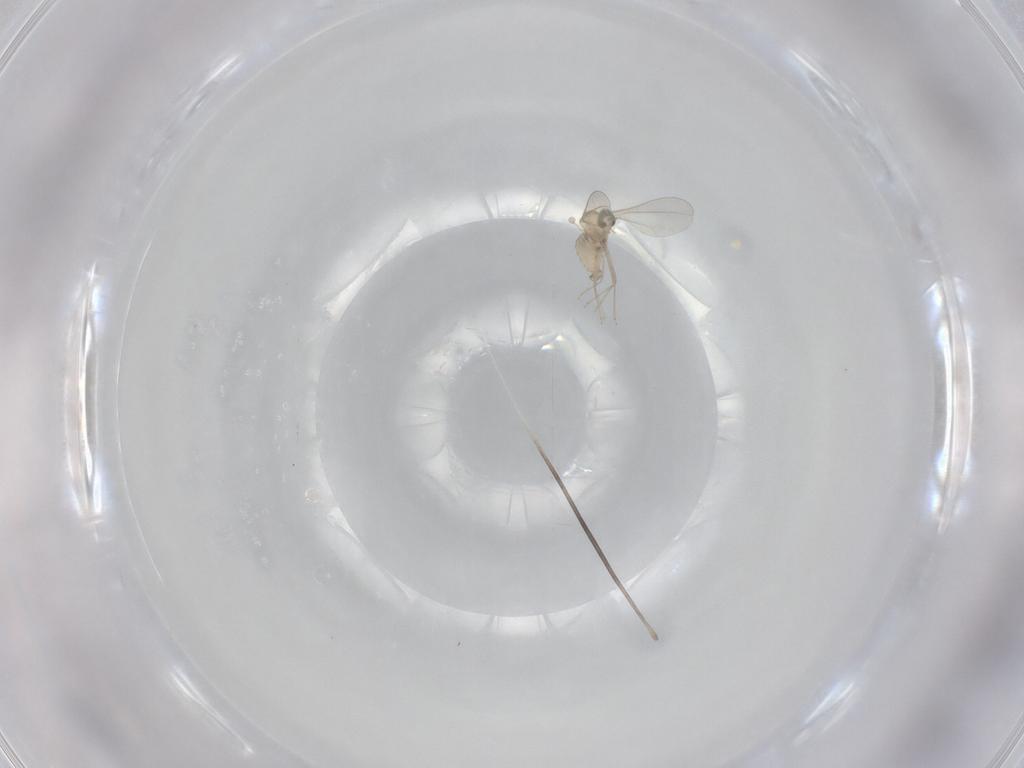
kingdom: Animalia
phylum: Arthropoda
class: Insecta
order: Diptera
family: Cecidomyiidae
